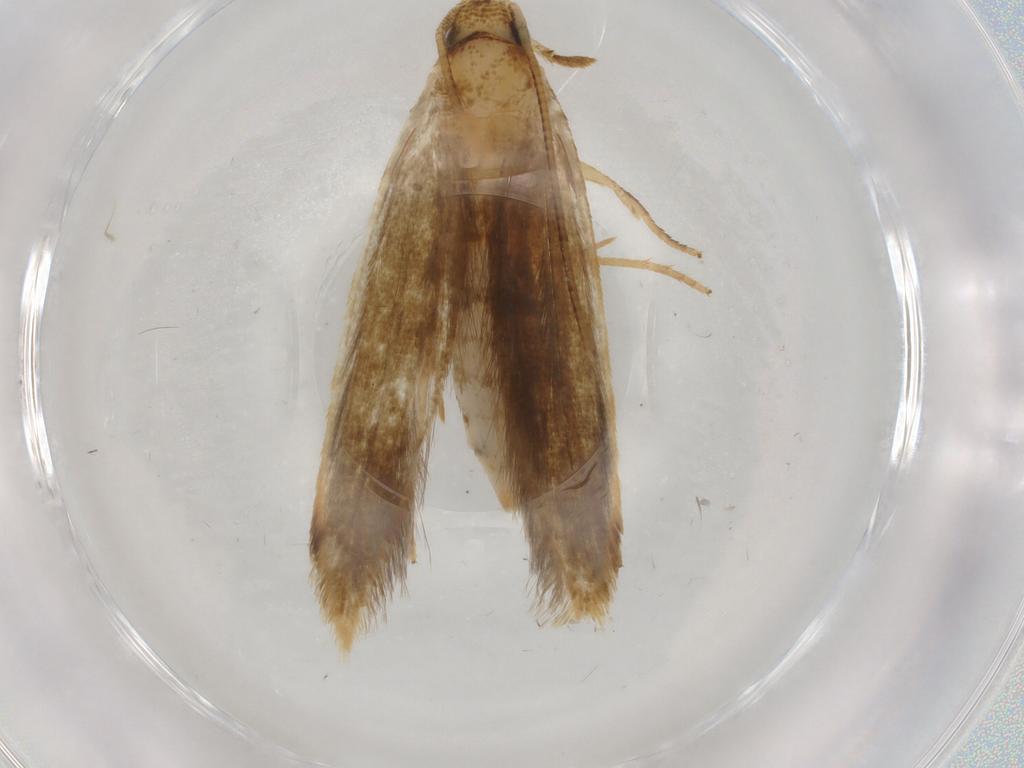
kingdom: Animalia
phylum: Arthropoda
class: Insecta
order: Lepidoptera
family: Tineidae
